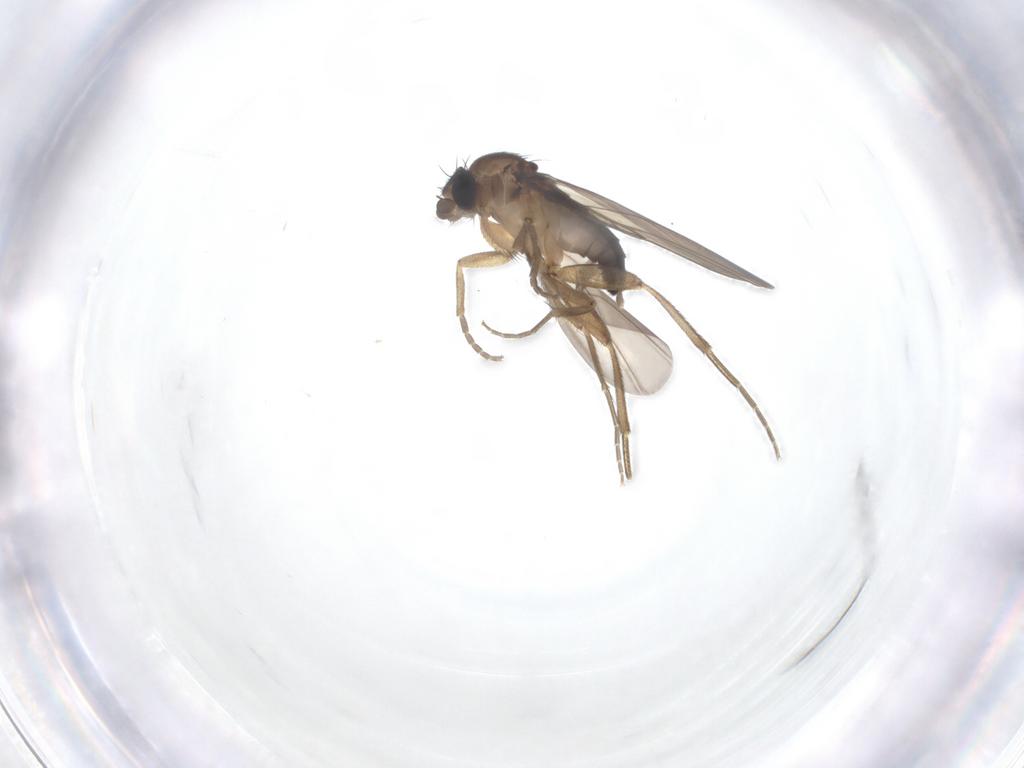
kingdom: Animalia
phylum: Arthropoda
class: Insecta
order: Diptera
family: Phoridae
